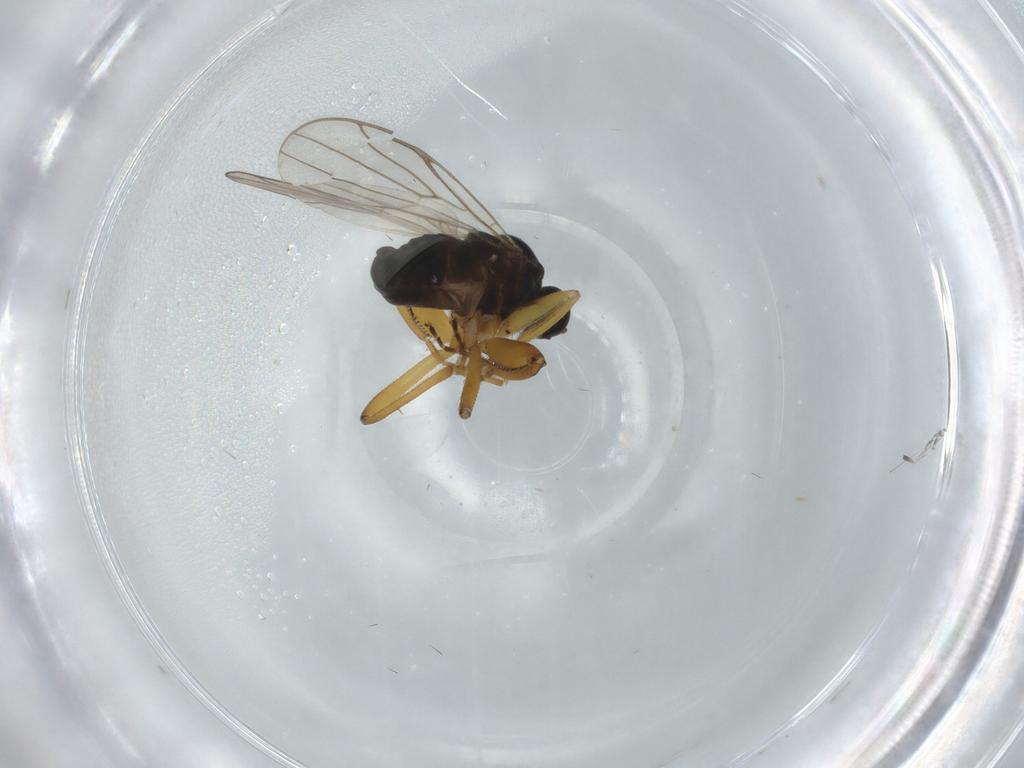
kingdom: Animalia
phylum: Arthropoda
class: Insecta
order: Diptera
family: Hybotidae
